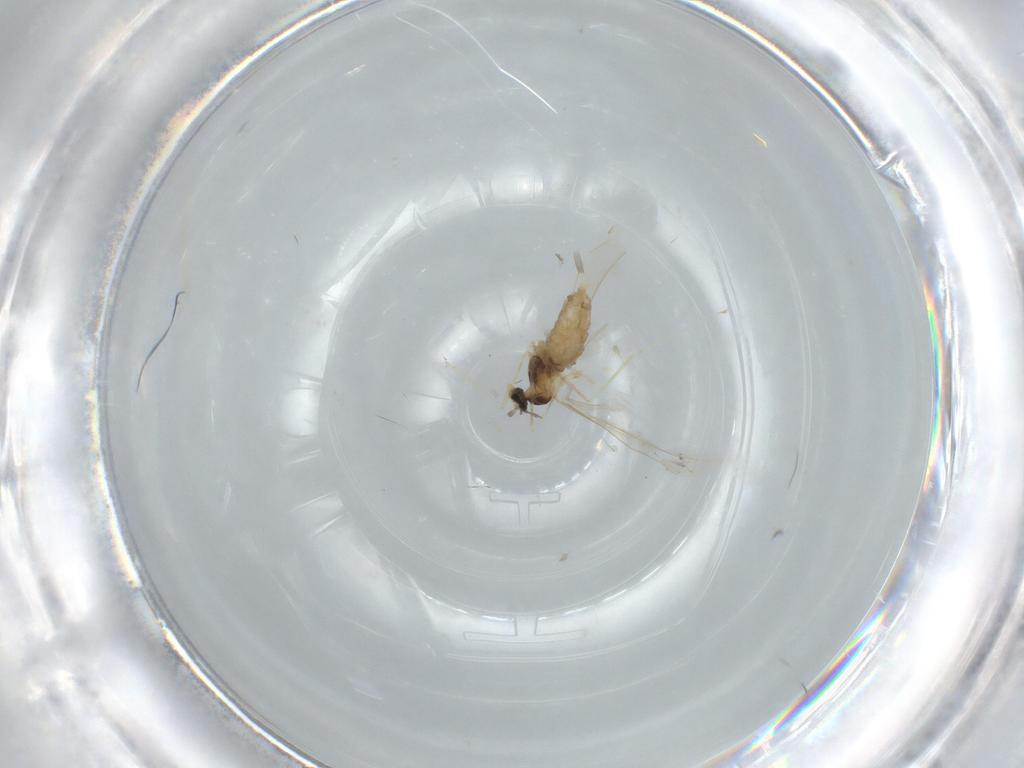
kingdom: Animalia
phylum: Arthropoda
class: Insecta
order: Diptera
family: Cecidomyiidae
